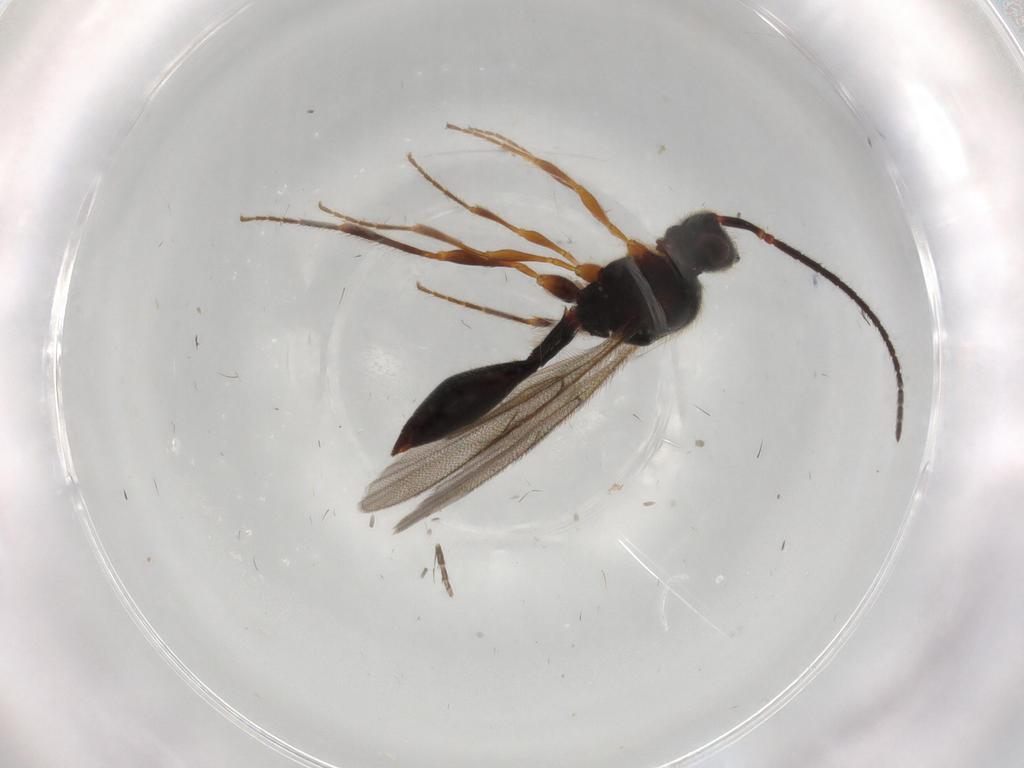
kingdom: Animalia
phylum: Arthropoda
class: Insecta
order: Hymenoptera
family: Diapriidae
